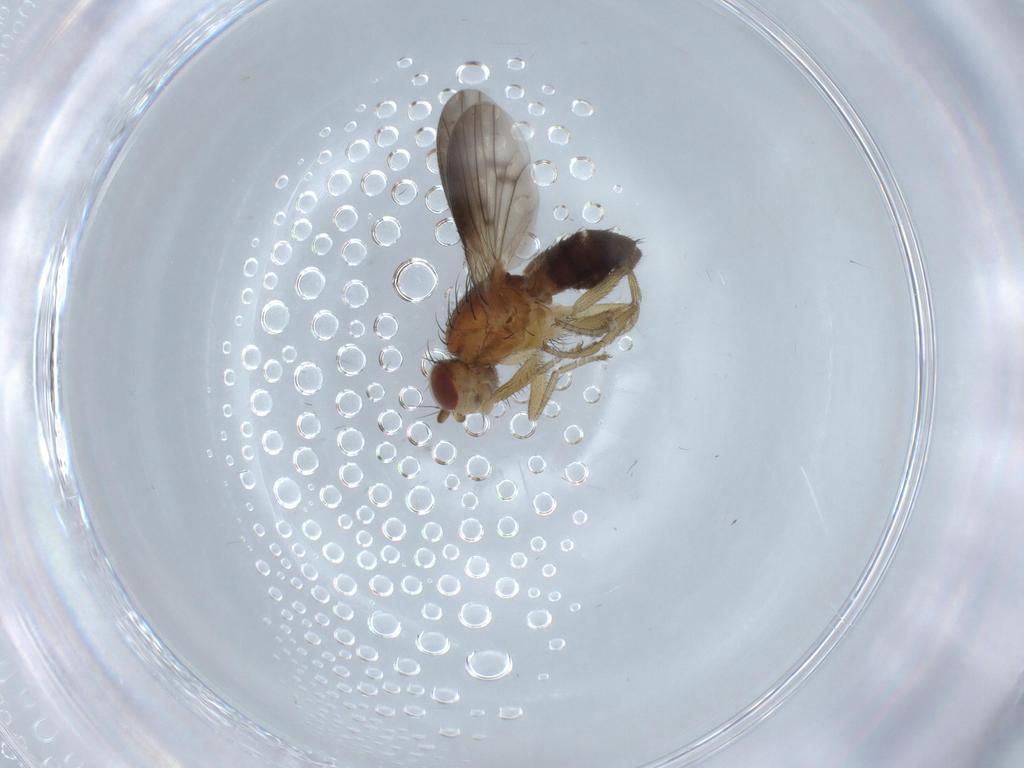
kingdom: Animalia
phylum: Arthropoda
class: Insecta
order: Diptera
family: Heleomyzidae
